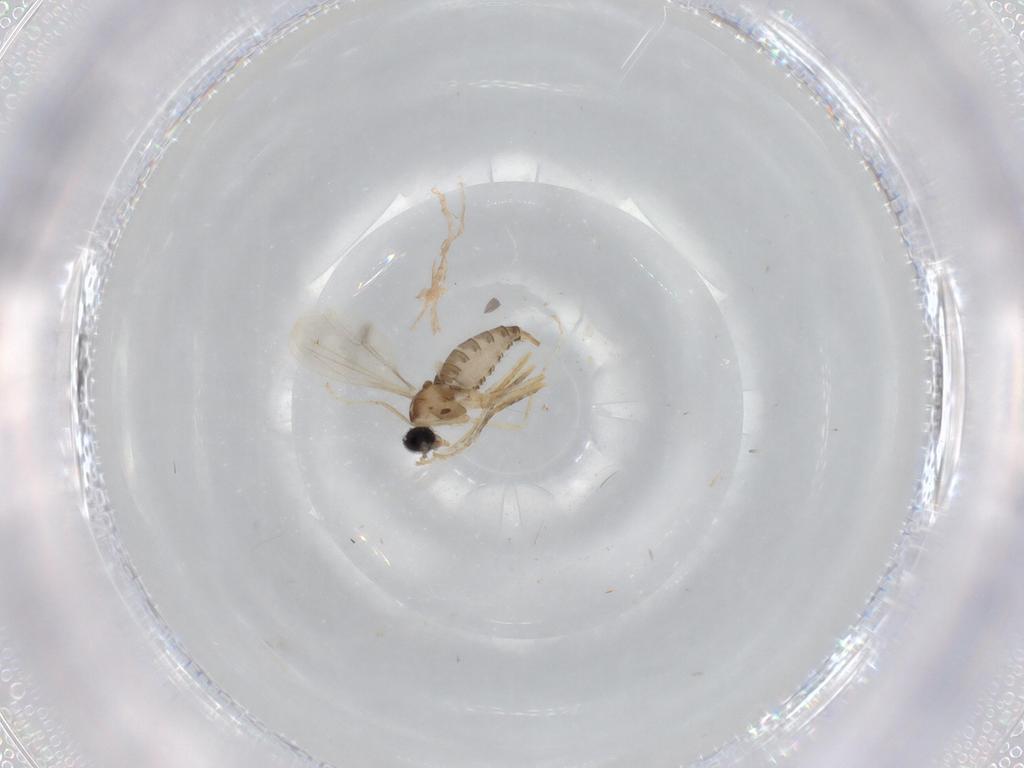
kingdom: Animalia
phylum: Arthropoda
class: Insecta
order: Diptera
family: Cecidomyiidae
